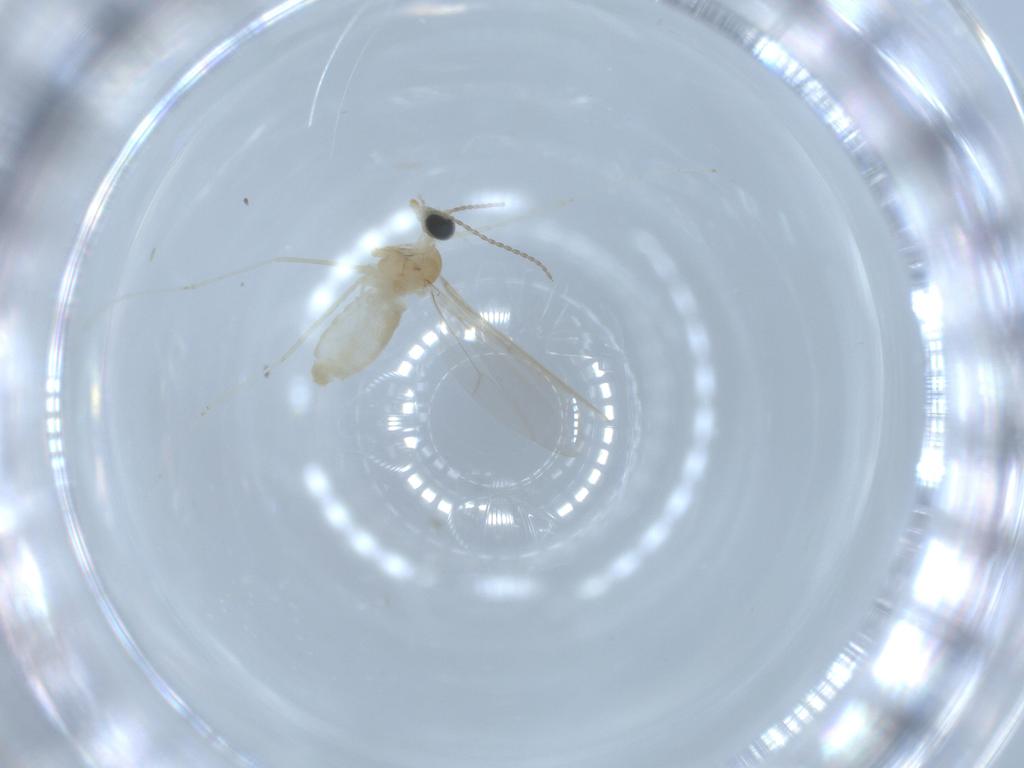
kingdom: Animalia
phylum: Arthropoda
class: Insecta
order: Diptera
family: Cecidomyiidae
